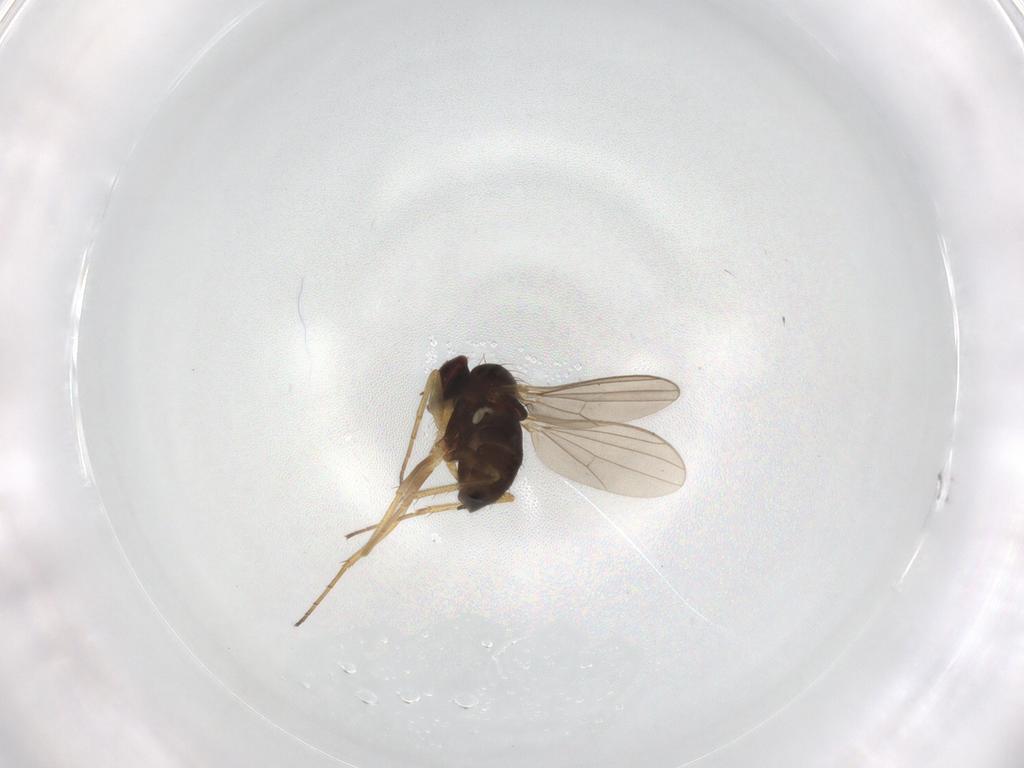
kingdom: Animalia
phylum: Arthropoda
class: Insecta
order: Diptera
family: Dolichopodidae
